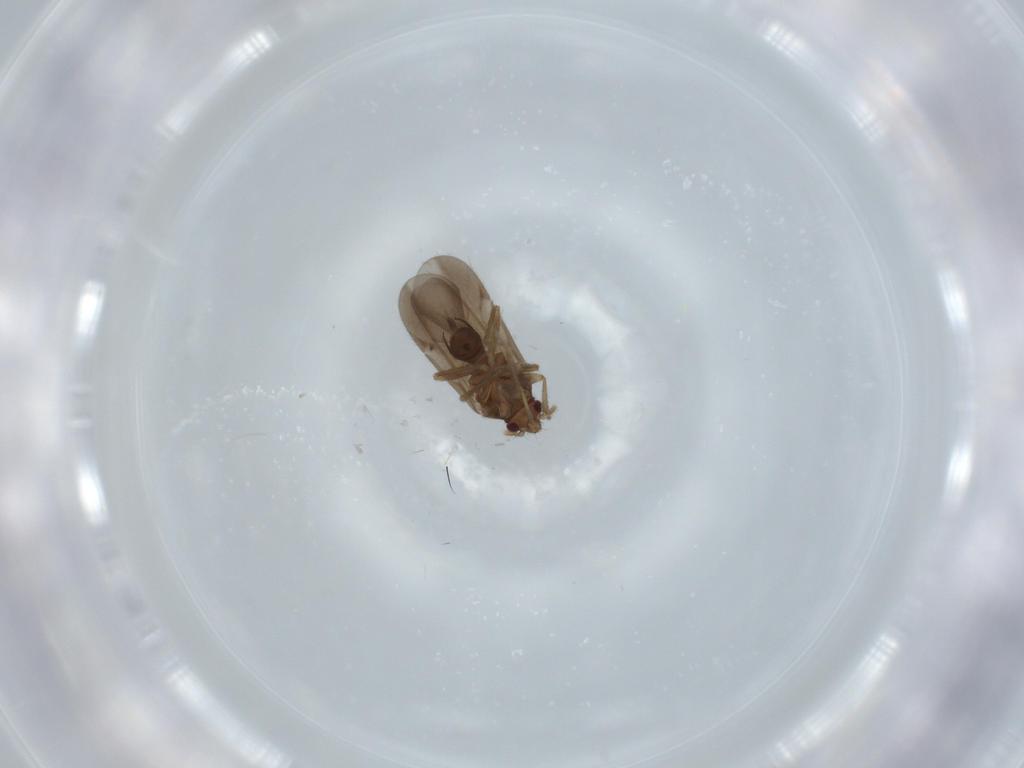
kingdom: Animalia
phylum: Arthropoda
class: Insecta
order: Hemiptera
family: Ceratocombidae
